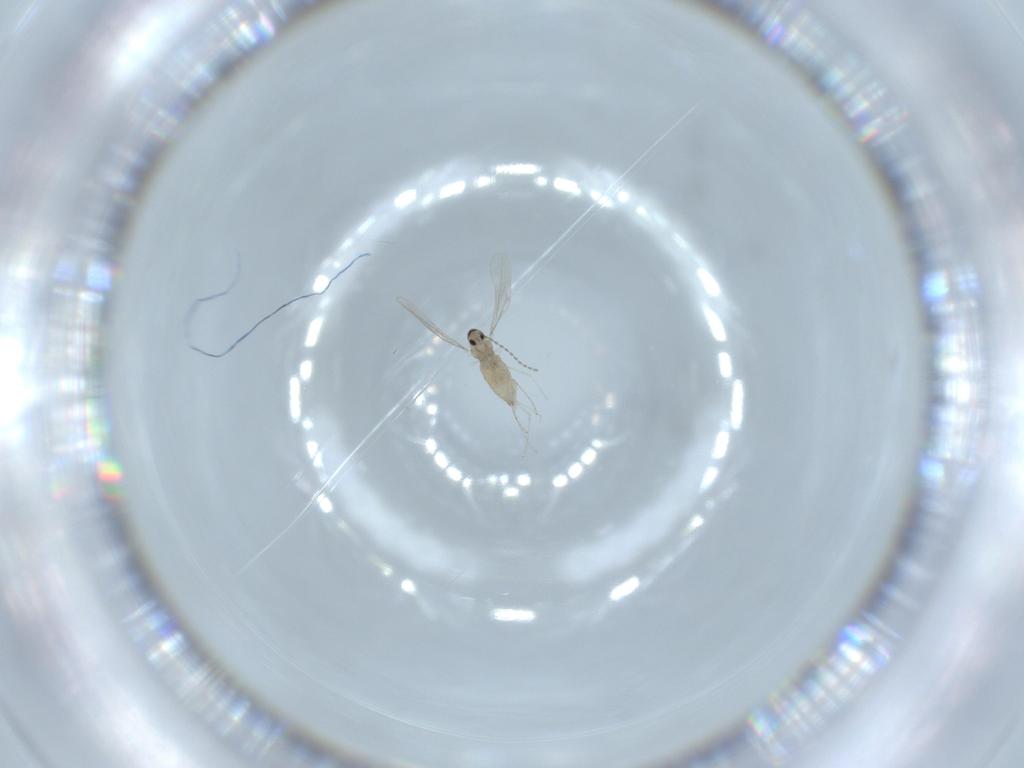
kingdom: Animalia
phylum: Arthropoda
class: Insecta
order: Diptera
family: Cecidomyiidae
